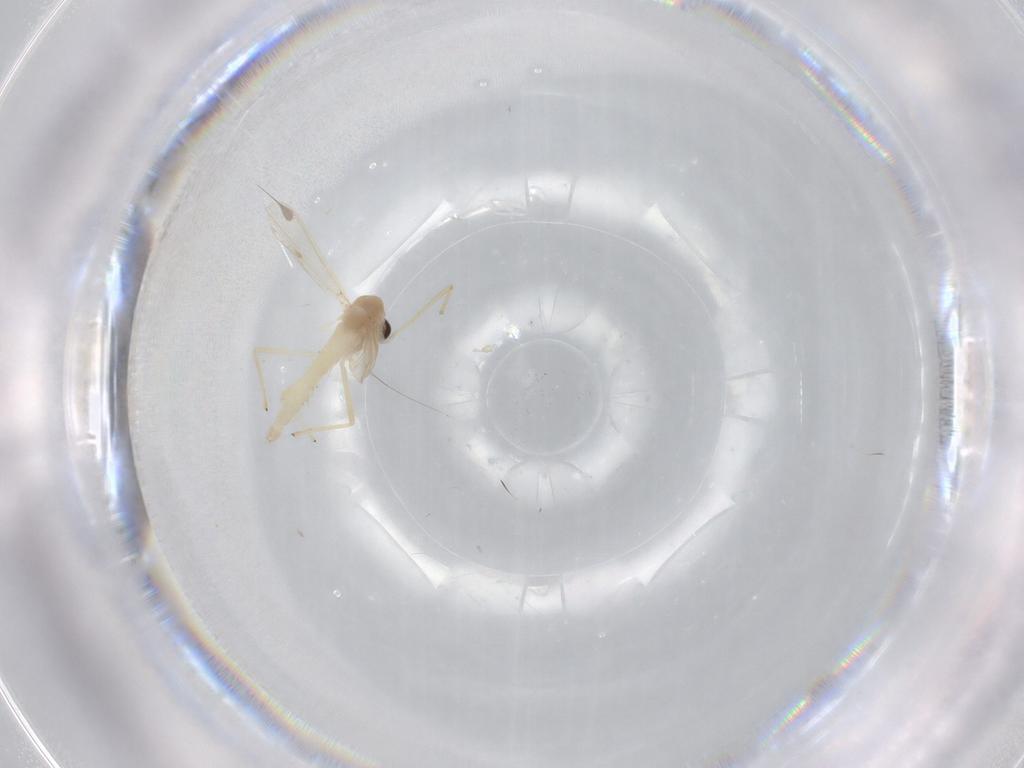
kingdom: Animalia
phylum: Arthropoda
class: Insecta
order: Diptera
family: Chironomidae
